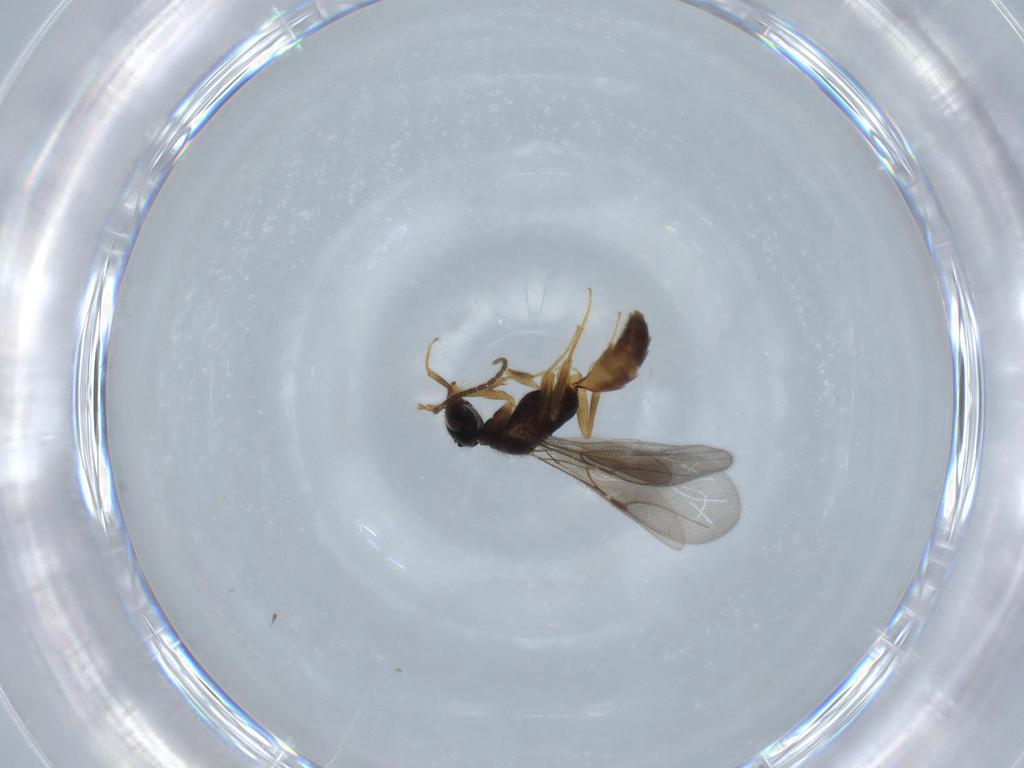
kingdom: Animalia
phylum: Arthropoda
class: Insecta
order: Hymenoptera
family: Bethylidae
